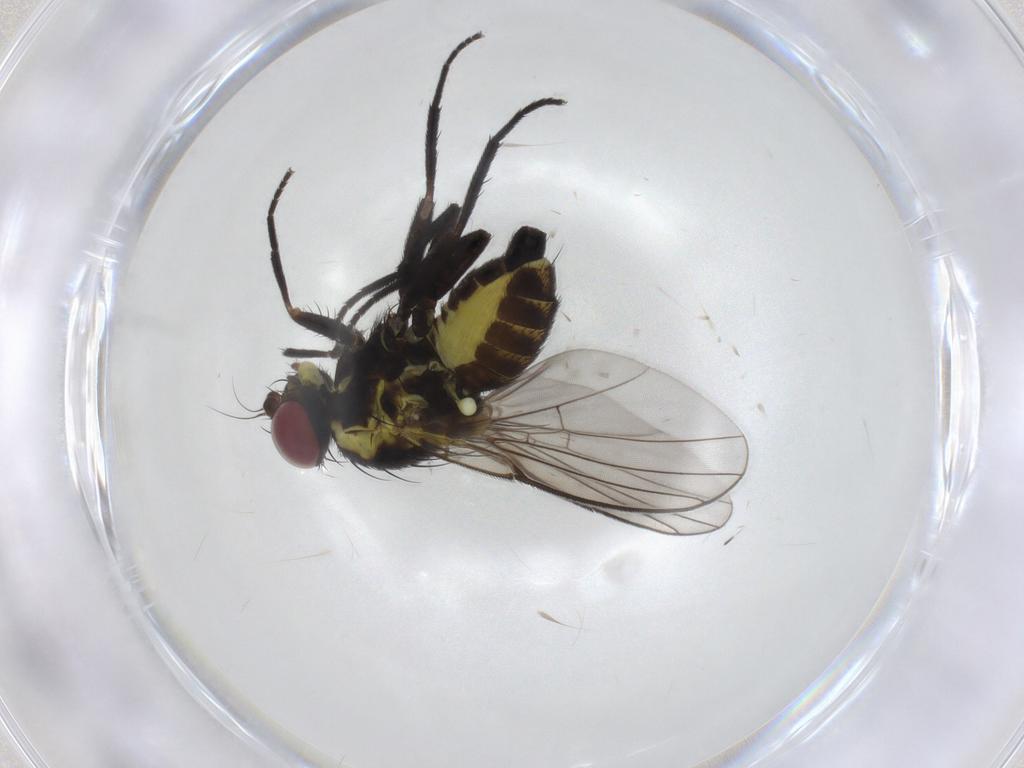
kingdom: Animalia
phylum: Arthropoda
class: Insecta
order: Diptera
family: Agromyzidae
